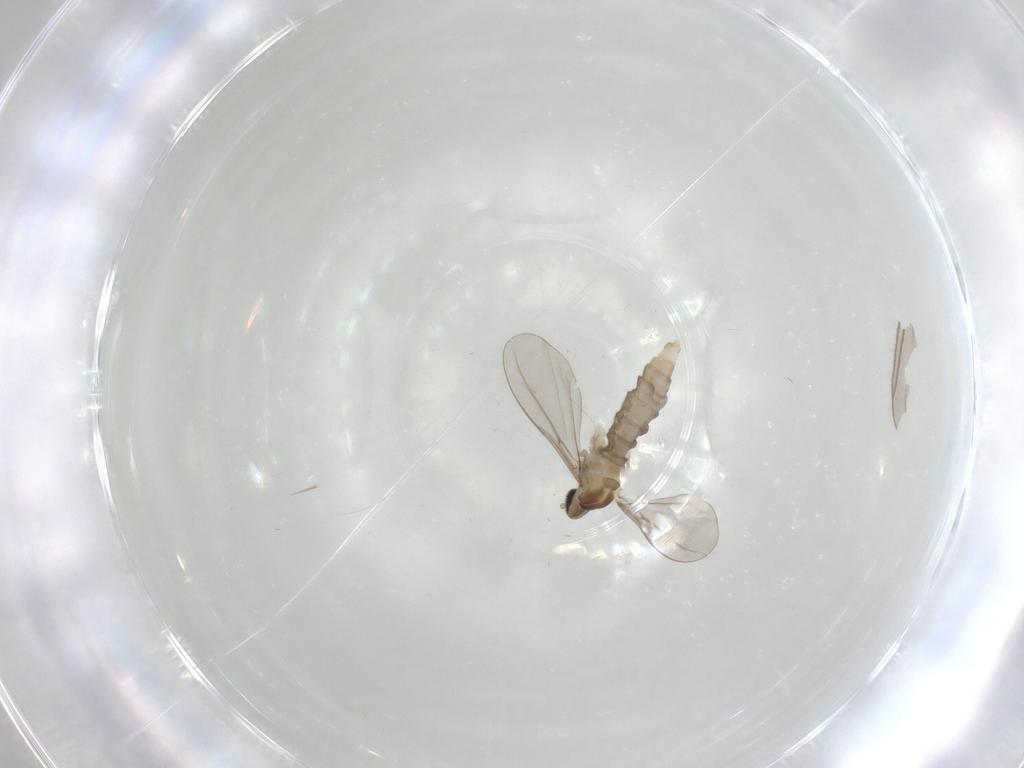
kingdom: Animalia
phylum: Arthropoda
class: Insecta
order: Diptera
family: Cecidomyiidae
